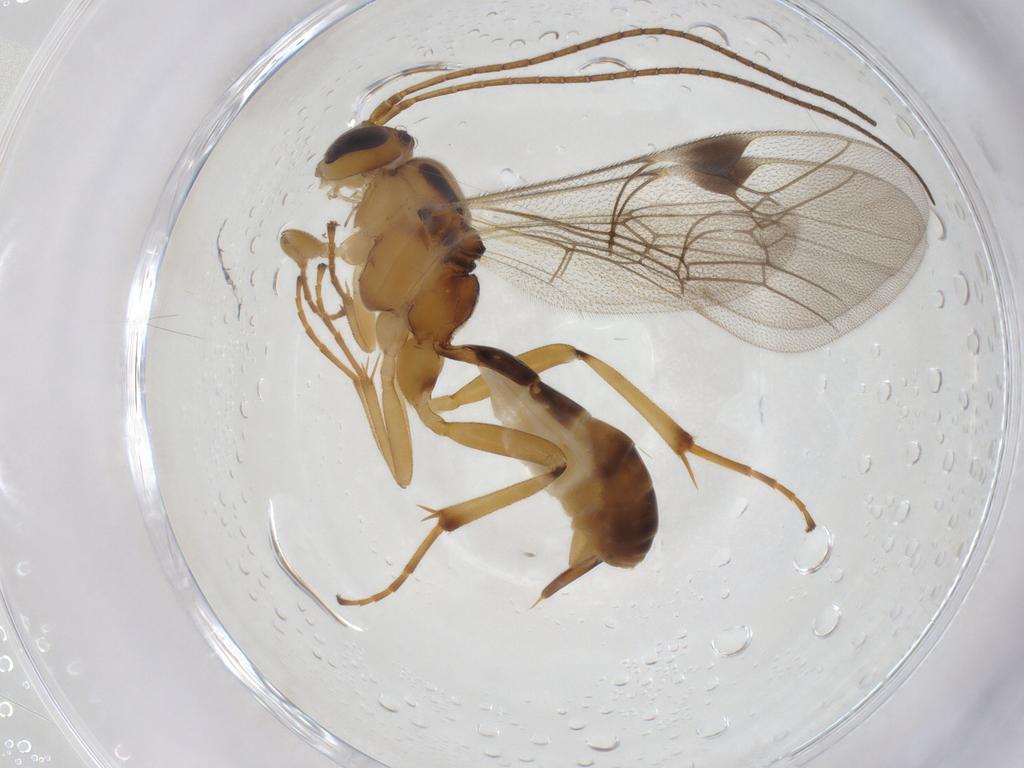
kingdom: Animalia
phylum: Arthropoda
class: Insecta
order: Hymenoptera
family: Ichneumonidae
